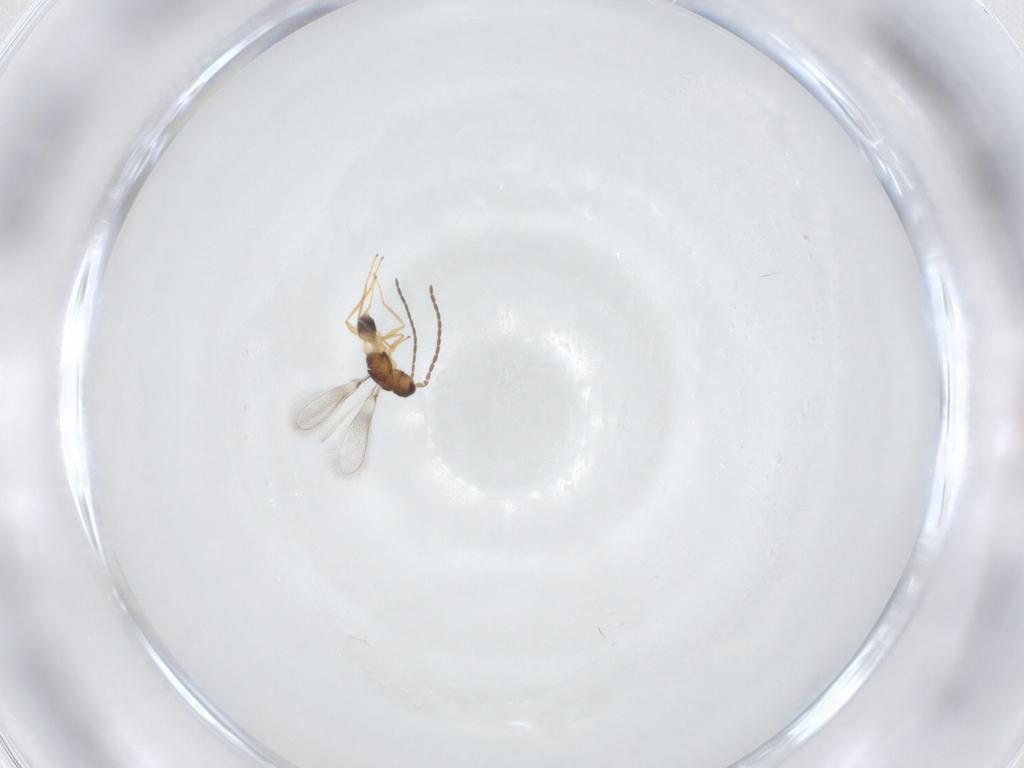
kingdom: Animalia
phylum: Arthropoda
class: Insecta
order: Hymenoptera
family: Mymaridae
